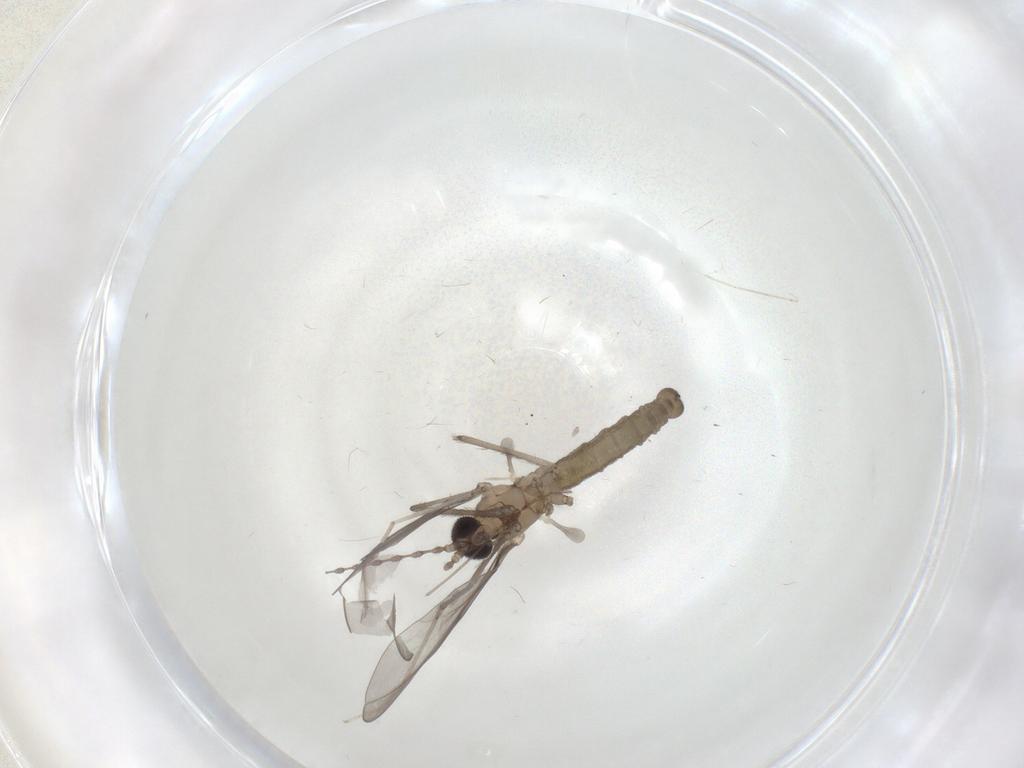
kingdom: Animalia
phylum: Arthropoda
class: Insecta
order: Diptera
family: Cecidomyiidae
